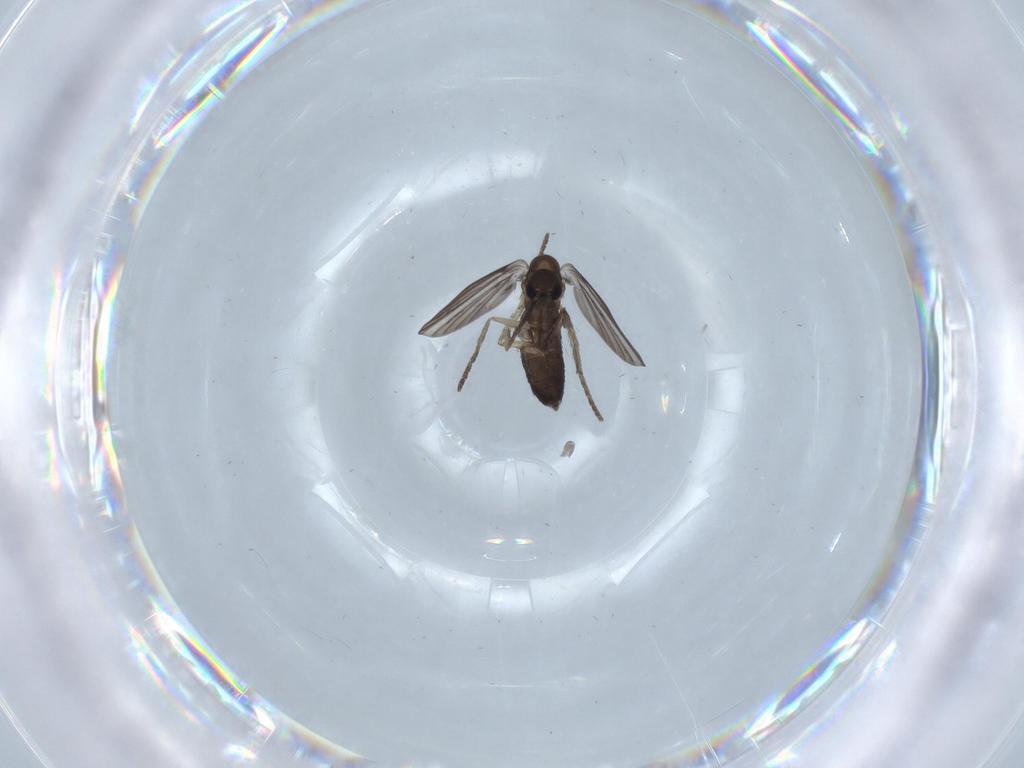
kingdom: Animalia
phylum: Arthropoda
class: Insecta
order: Diptera
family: Psychodidae
